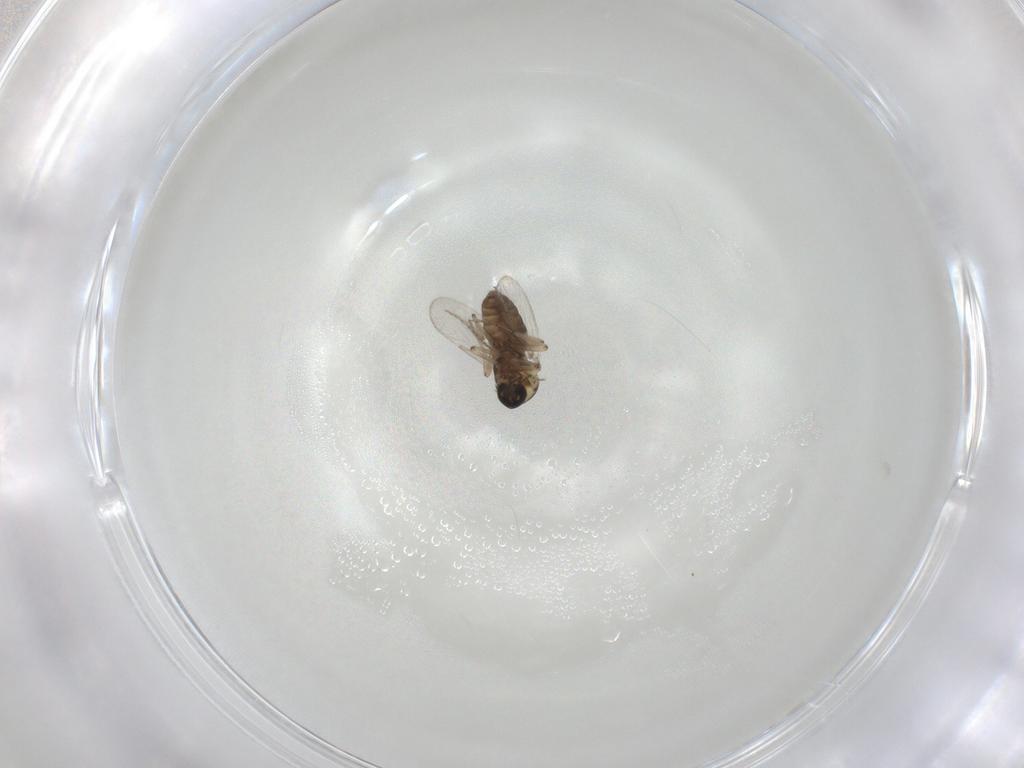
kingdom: Animalia
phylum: Arthropoda
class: Insecta
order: Diptera
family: Ceratopogonidae
